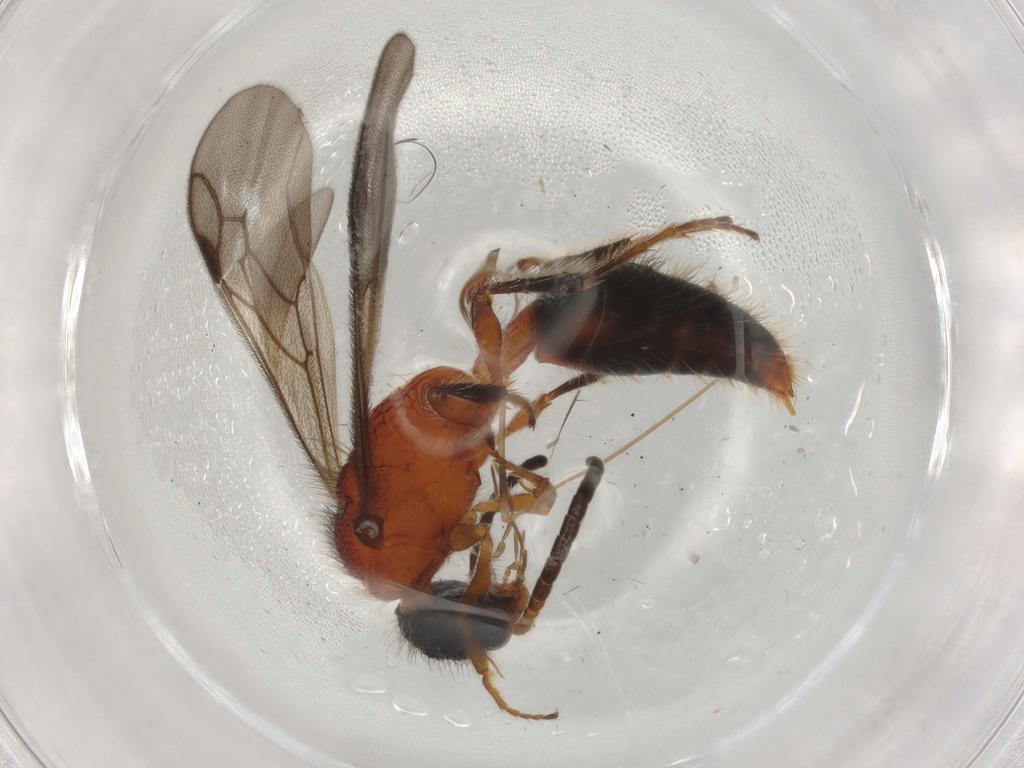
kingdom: Animalia
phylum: Arthropoda
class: Insecta
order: Hymenoptera
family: Mutillidae
